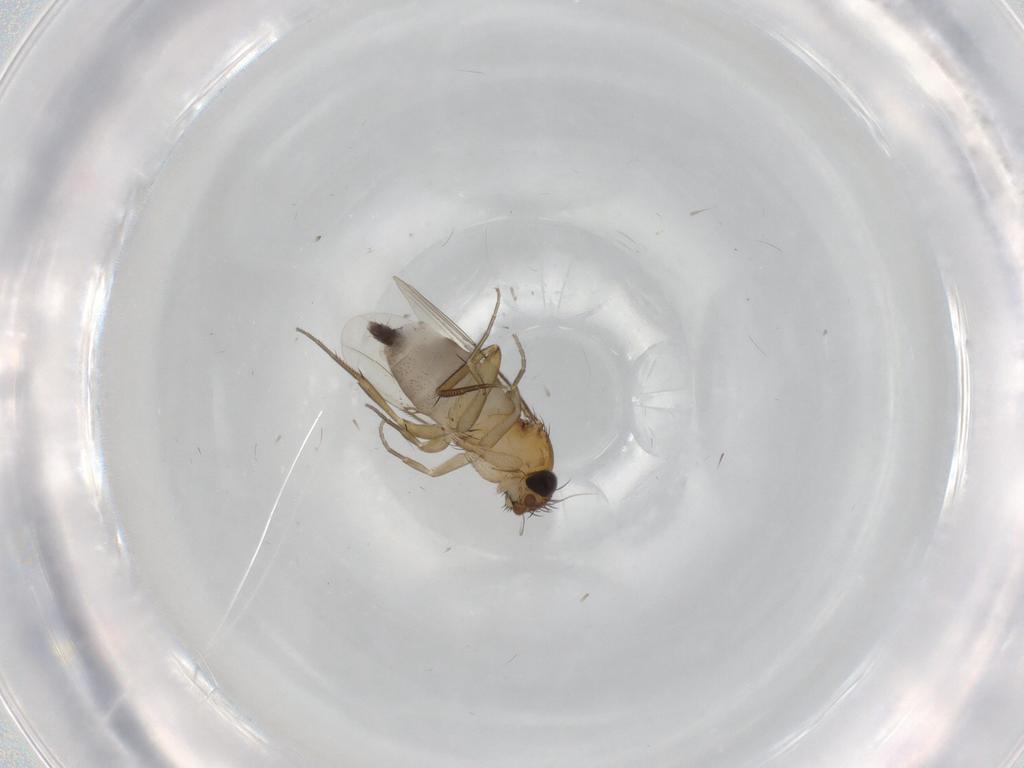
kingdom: Animalia
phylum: Arthropoda
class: Insecta
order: Diptera
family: Phoridae
